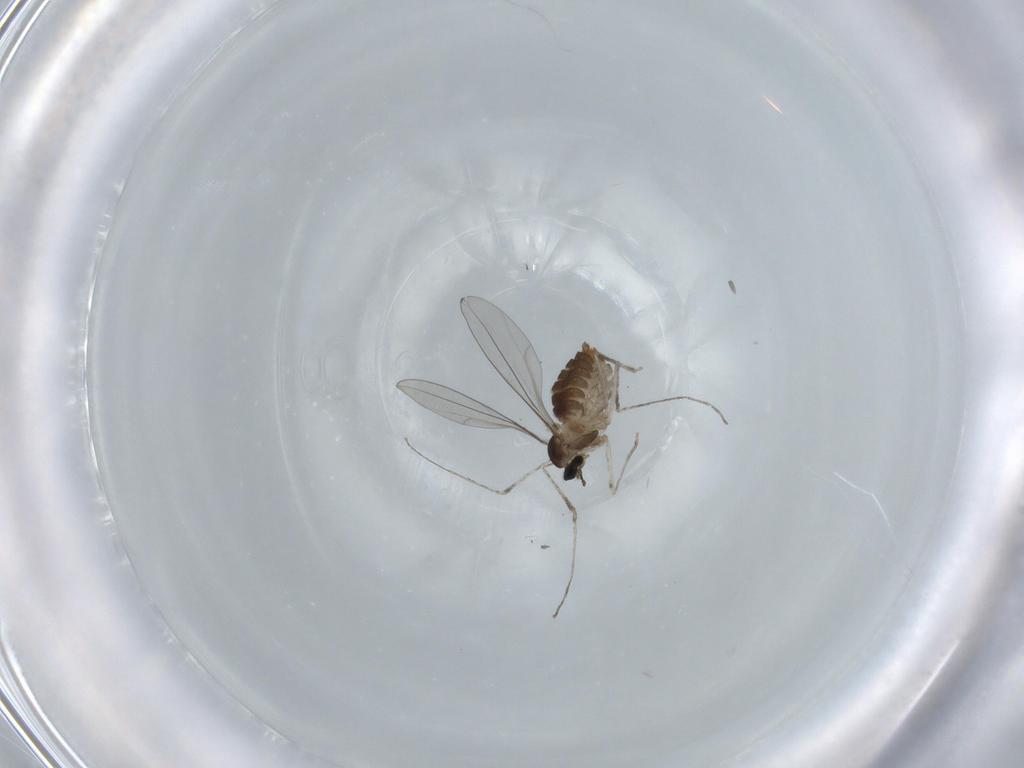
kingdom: Animalia
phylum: Arthropoda
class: Insecta
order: Diptera
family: Cecidomyiidae
